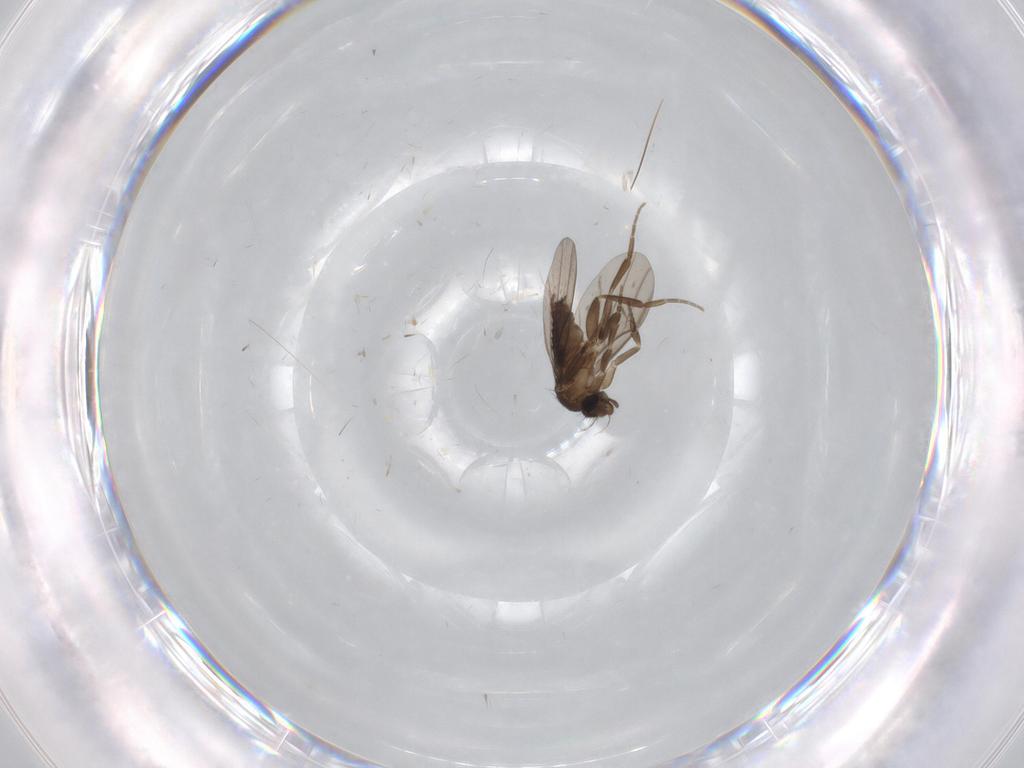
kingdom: Animalia
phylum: Arthropoda
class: Insecta
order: Diptera
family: Phoridae
